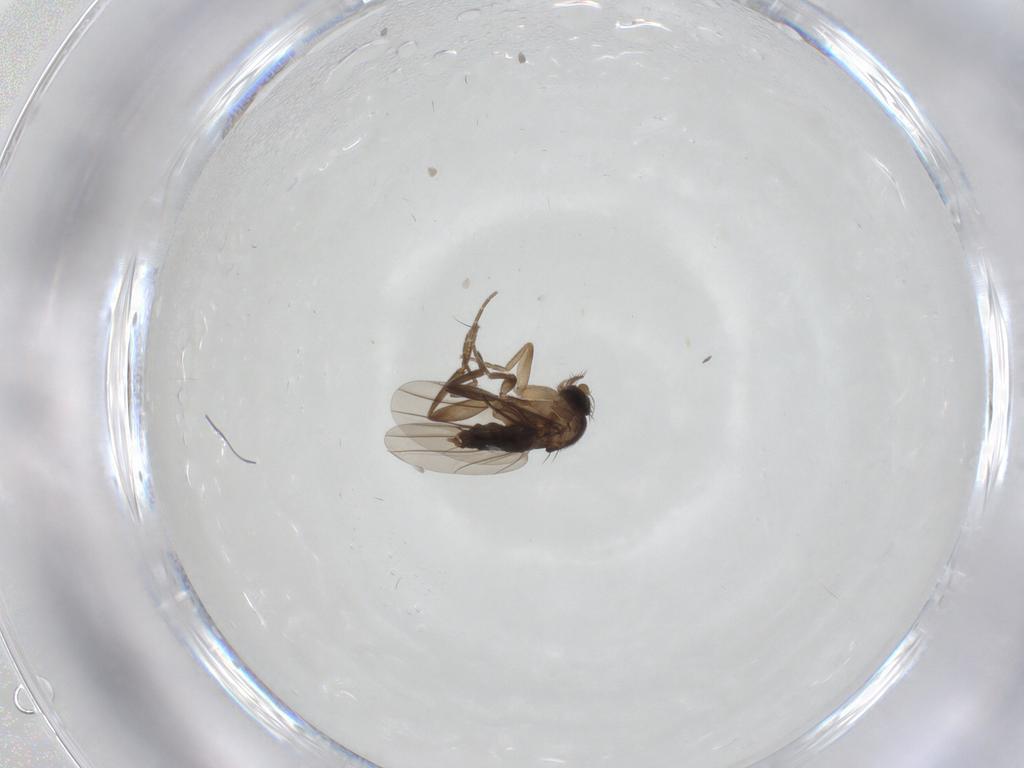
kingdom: Animalia
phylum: Arthropoda
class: Insecta
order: Diptera
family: Phoridae
